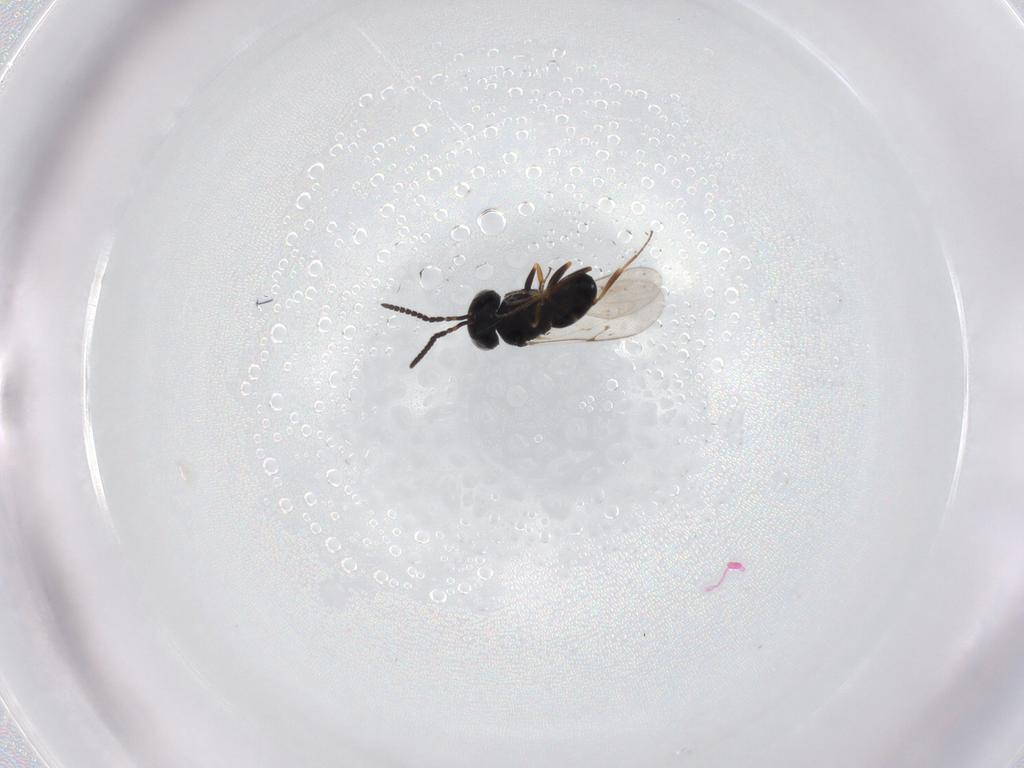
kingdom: Animalia
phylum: Arthropoda
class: Insecta
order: Hymenoptera
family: Scelionidae
